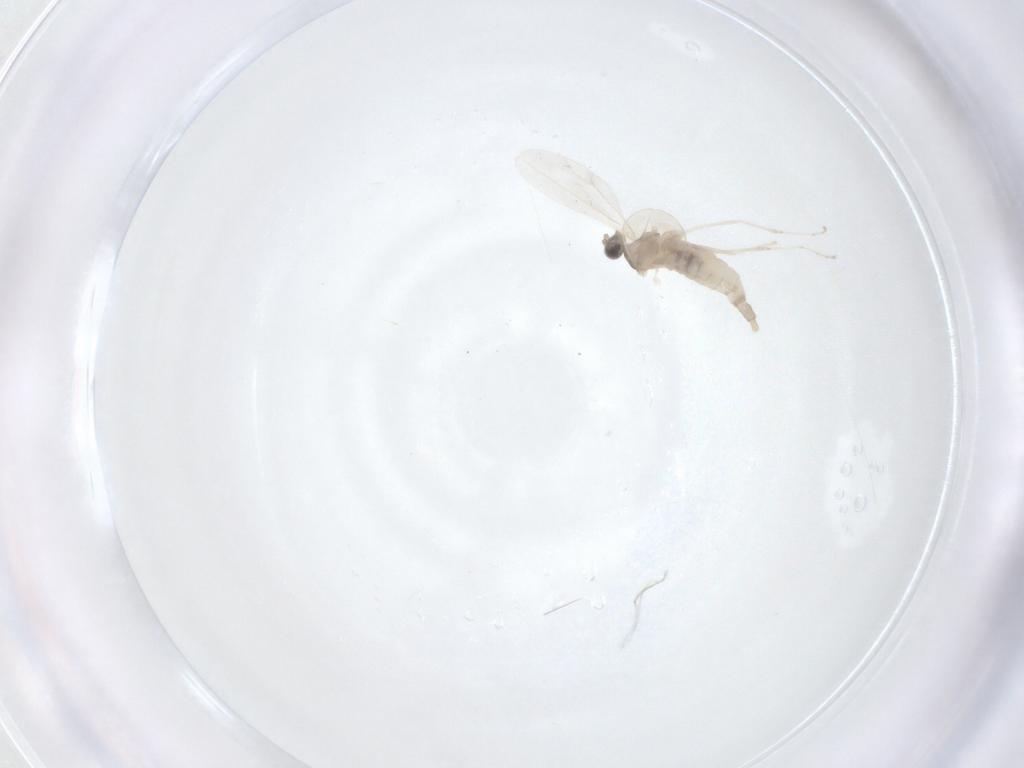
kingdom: Animalia
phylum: Arthropoda
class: Insecta
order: Diptera
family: Cecidomyiidae
